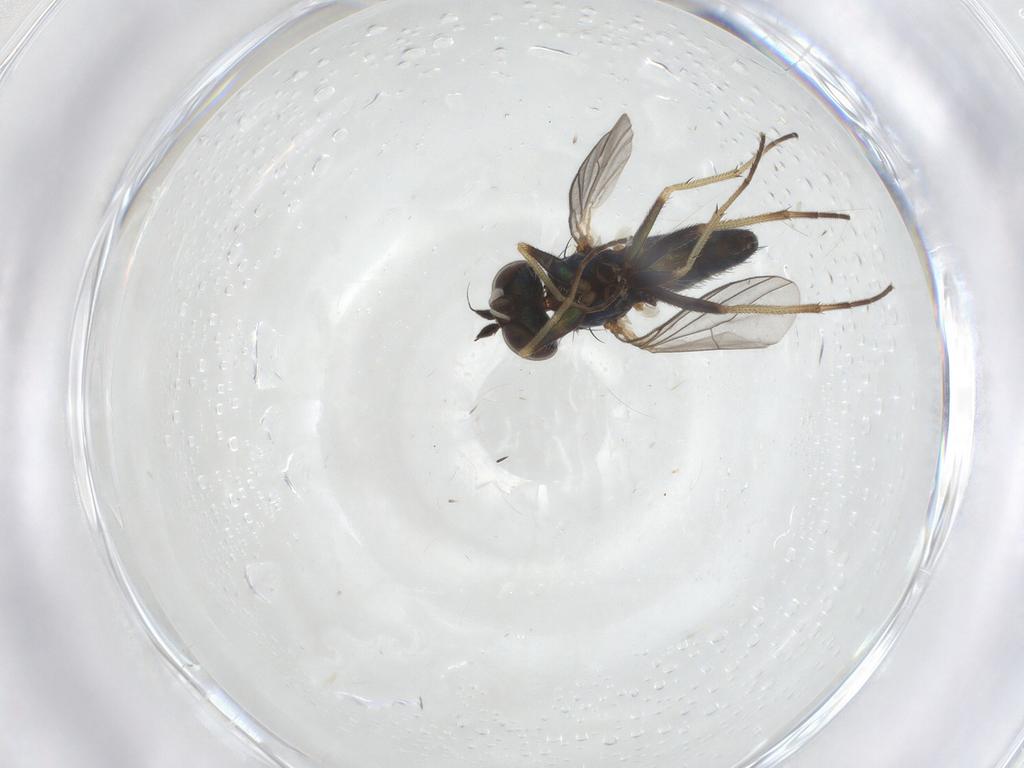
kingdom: Animalia
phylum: Arthropoda
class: Insecta
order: Diptera
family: Dolichopodidae
